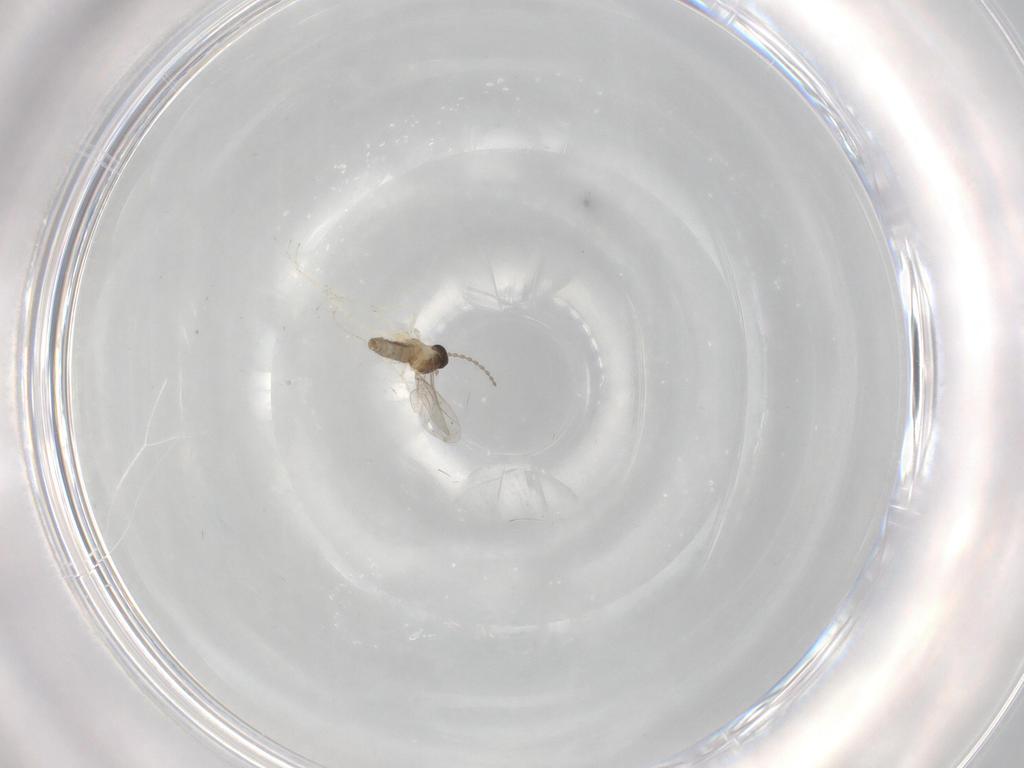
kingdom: Animalia
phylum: Arthropoda
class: Insecta
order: Diptera
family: Cecidomyiidae
